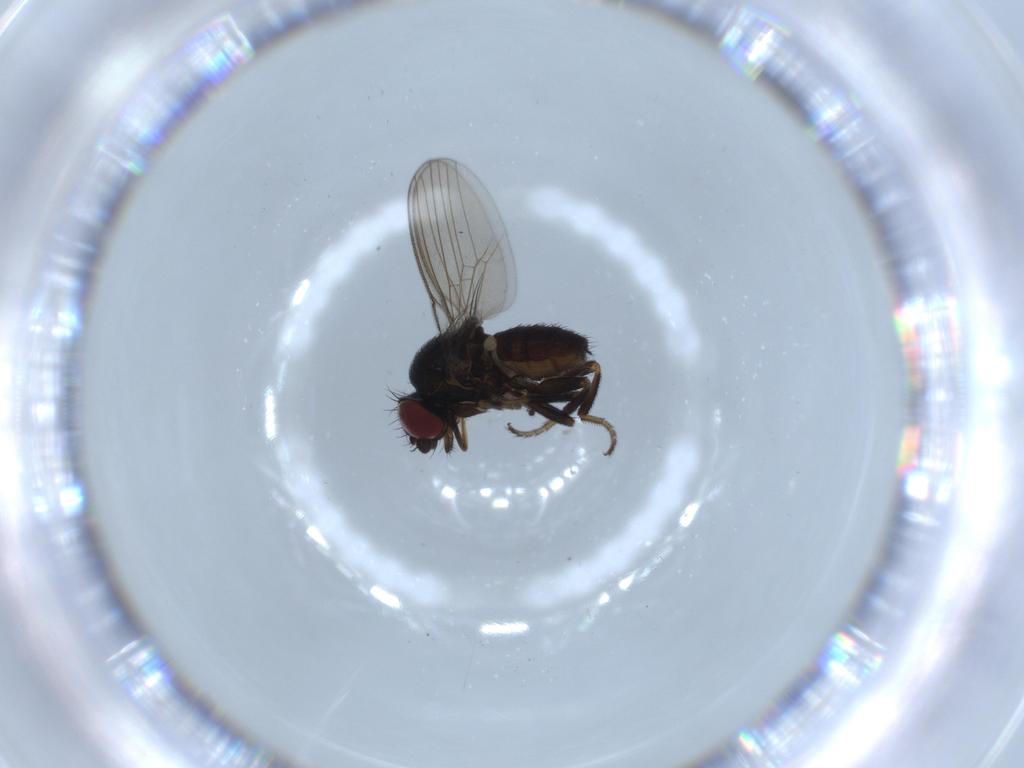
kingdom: Animalia
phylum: Arthropoda
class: Insecta
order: Diptera
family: Milichiidae
